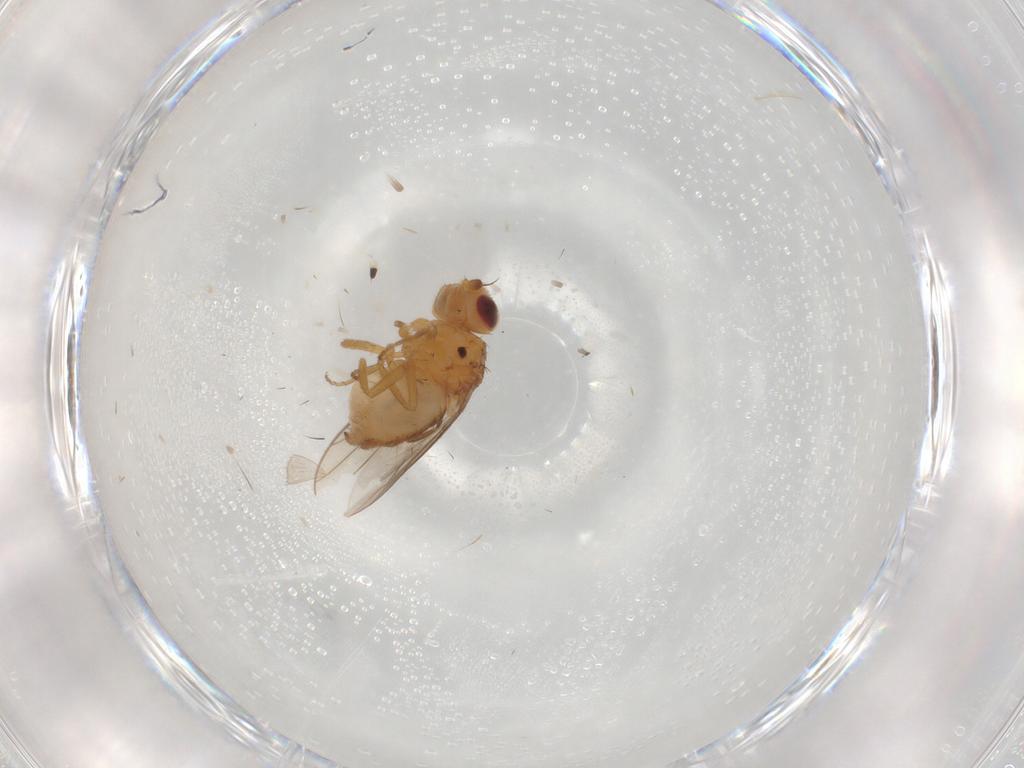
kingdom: Animalia
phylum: Arthropoda
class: Insecta
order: Diptera
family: Chloropidae
